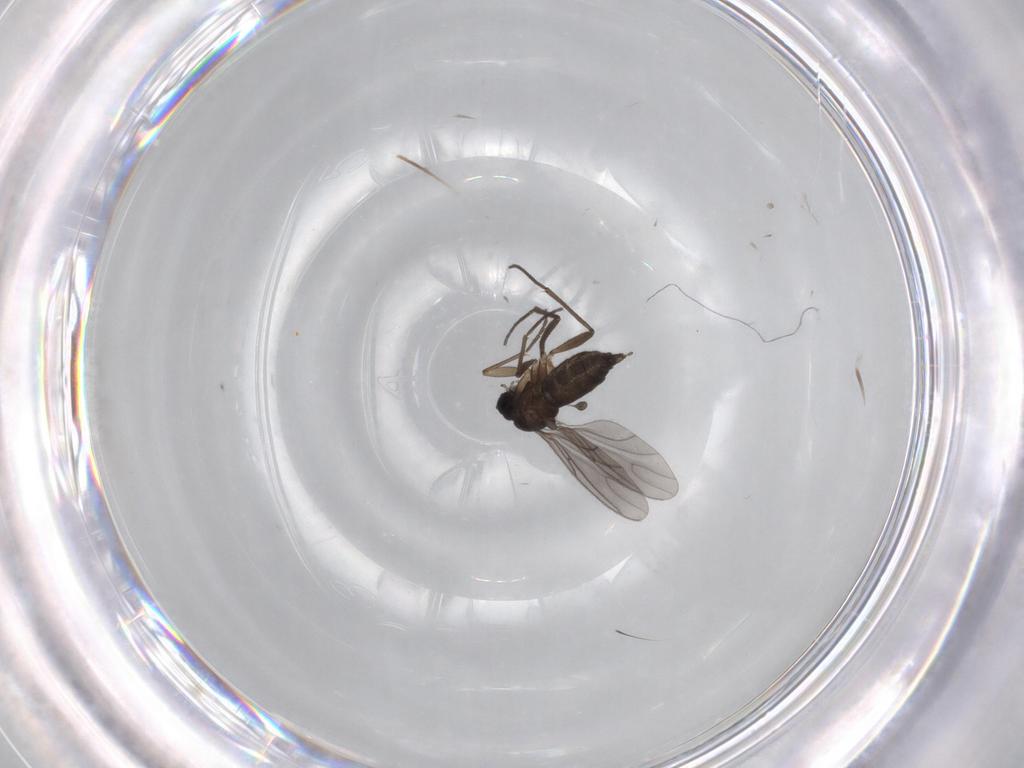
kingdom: Animalia
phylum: Arthropoda
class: Insecta
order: Diptera
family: Sciaridae
